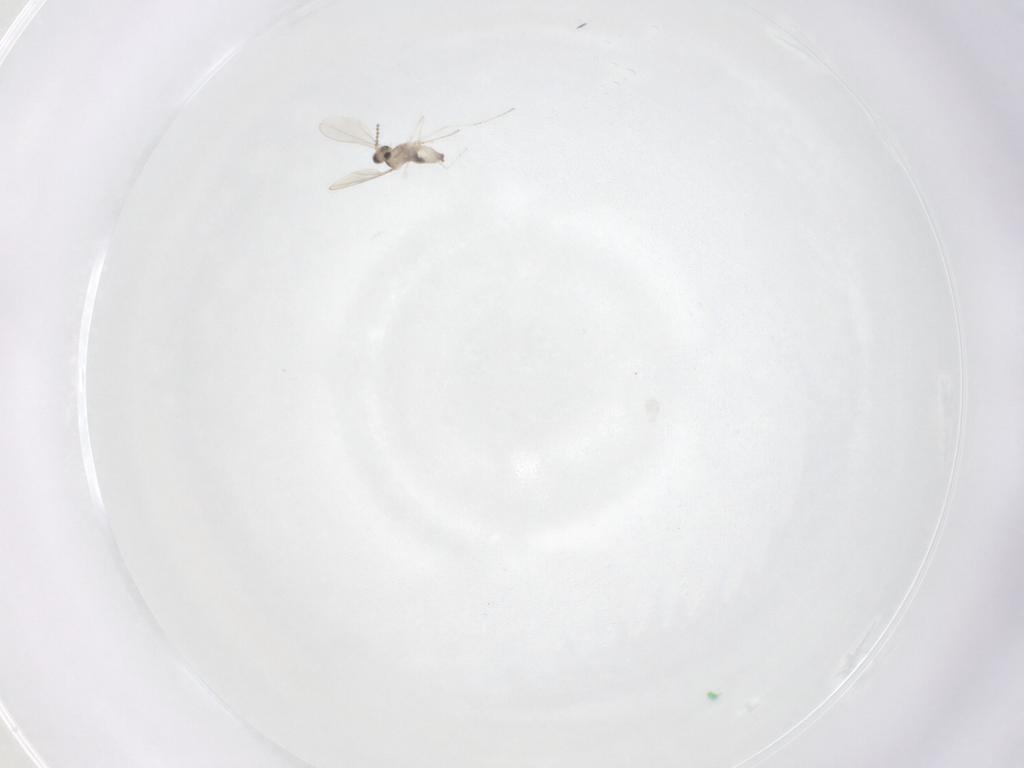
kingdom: Animalia
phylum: Arthropoda
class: Insecta
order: Diptera
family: Cecidomyiidae
